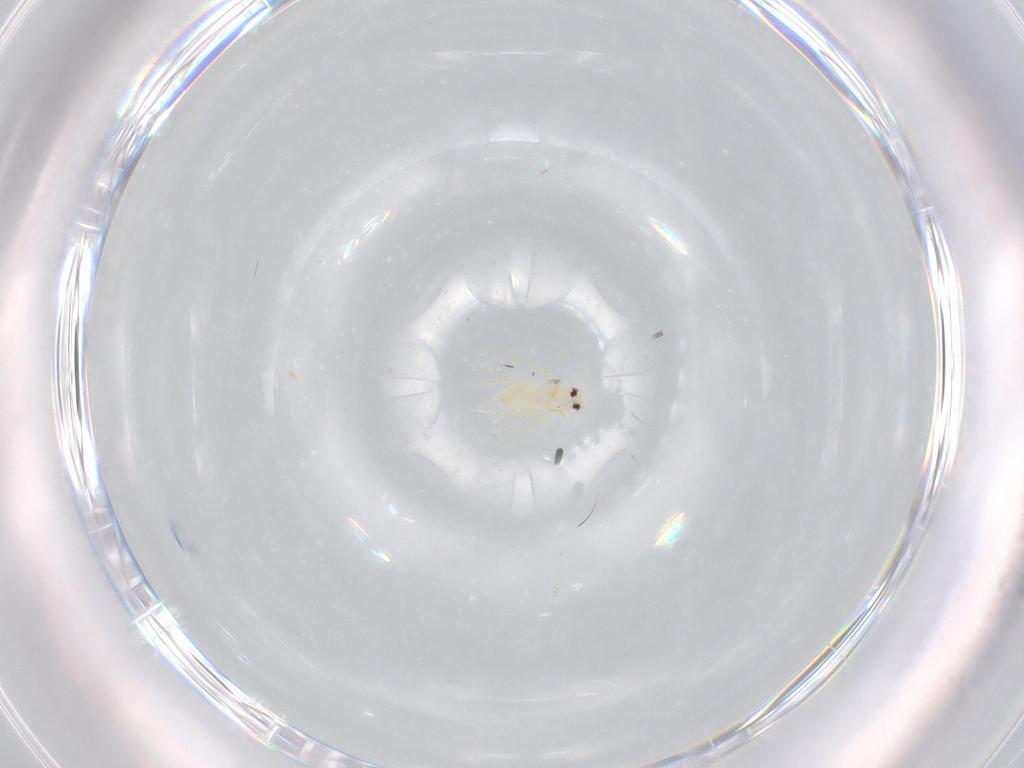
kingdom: Animalia
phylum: Arthropoda
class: Insecta
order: Hemiptera
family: Aleyrodidae
